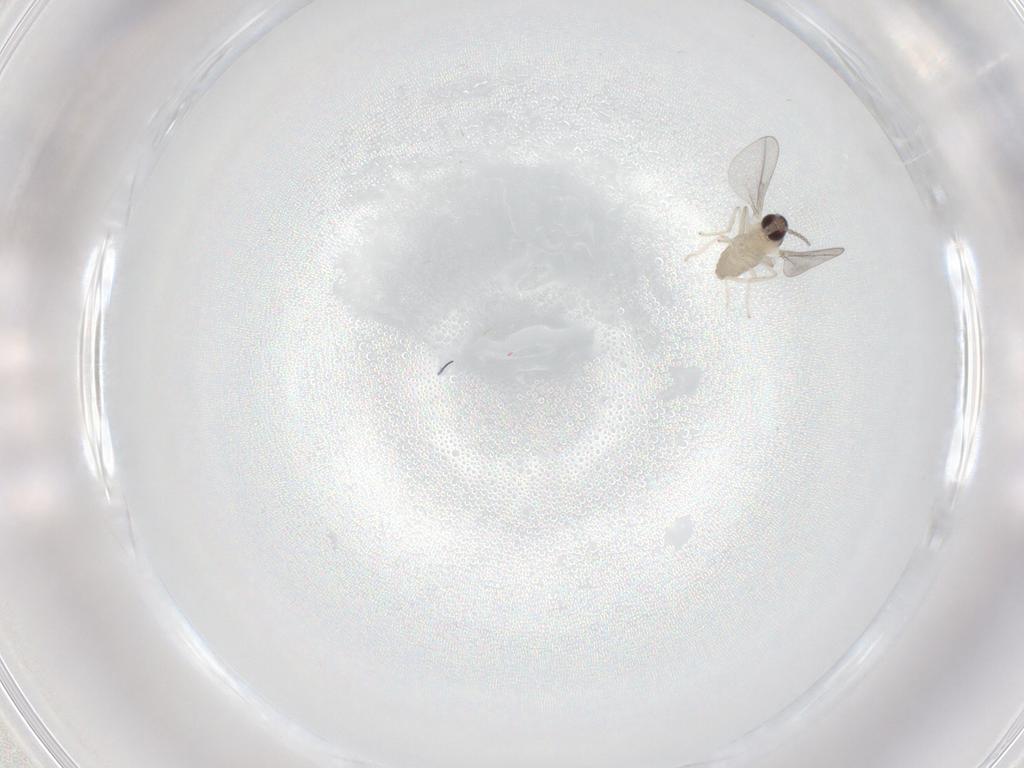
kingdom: Animalia
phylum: Arthropoda
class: Insecta
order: Diptera
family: Phoridae
